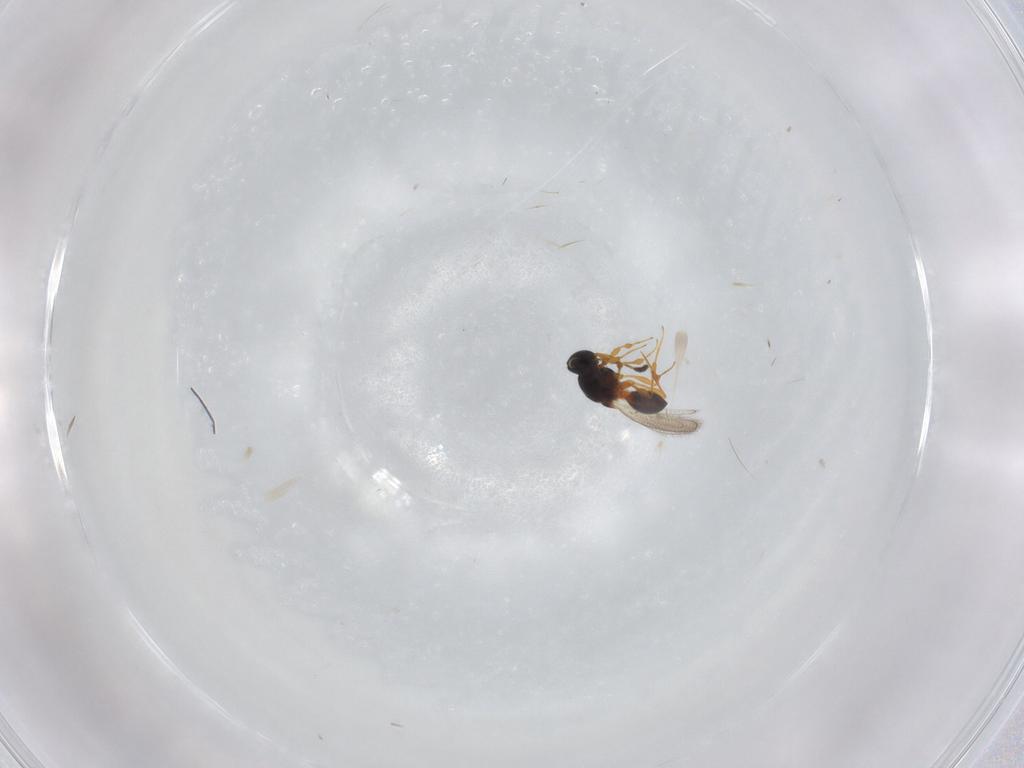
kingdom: Animalia
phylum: Arthropoda
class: Insecta
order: Hymenoptera
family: Platygastridae
